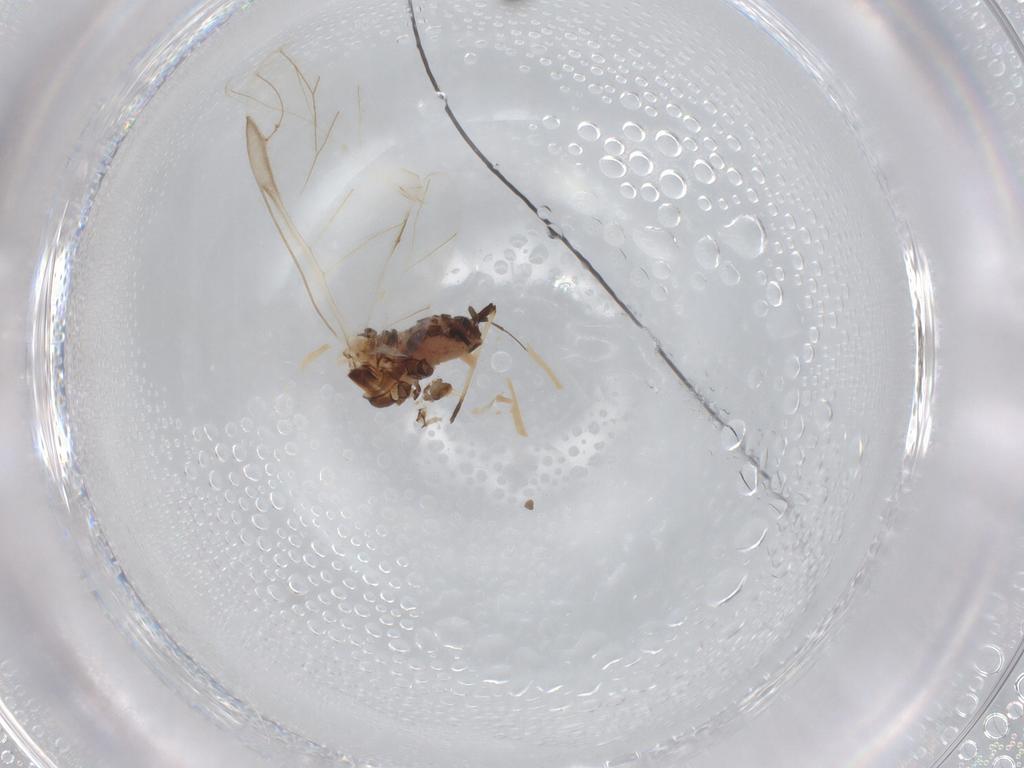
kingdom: Animalia
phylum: Arthropoda
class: Insecta
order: Hemiptera
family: Aphididae
